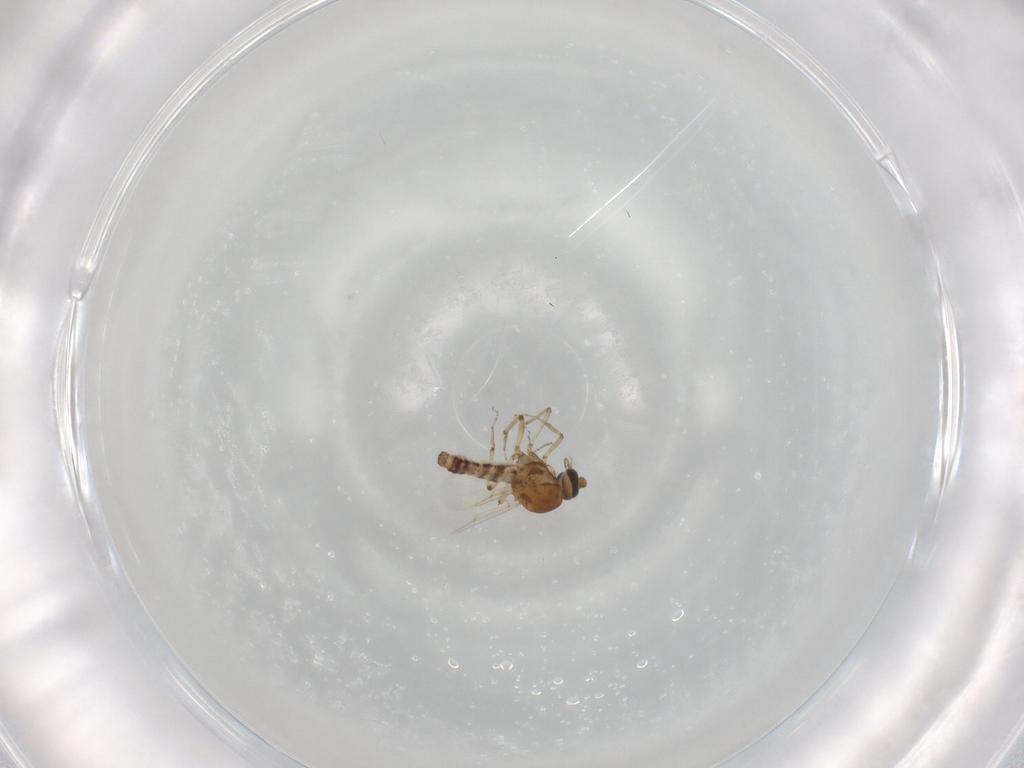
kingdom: Animalia
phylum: Arthropoda
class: Insecta
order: Diptera
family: Ceratopogonidae
